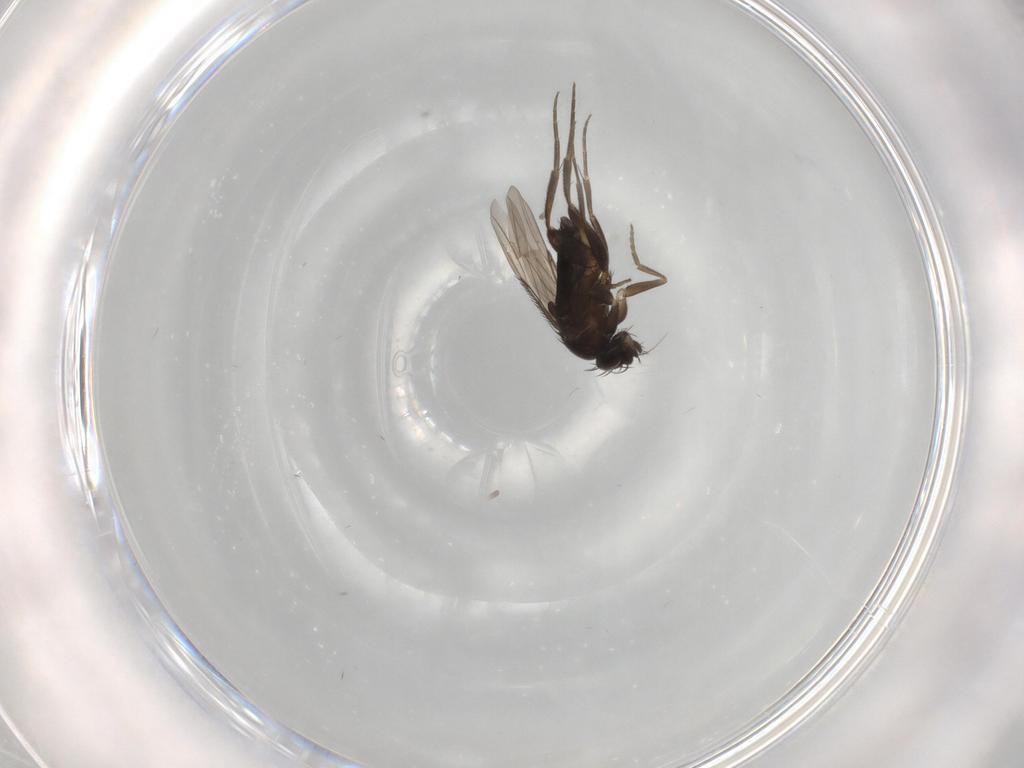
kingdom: Animalia
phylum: Arthropoda
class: Insecta
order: Diptera
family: Phoridae
